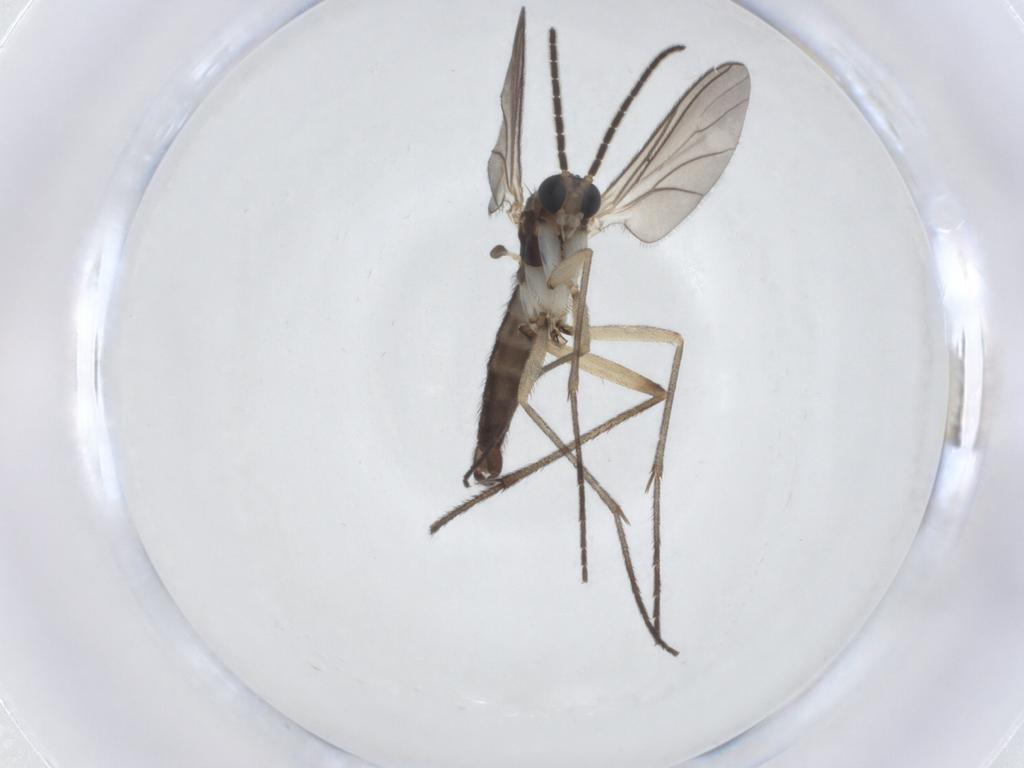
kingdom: Animalia
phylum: Arthropoda
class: Insecta
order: Diptera
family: Sciaridae
